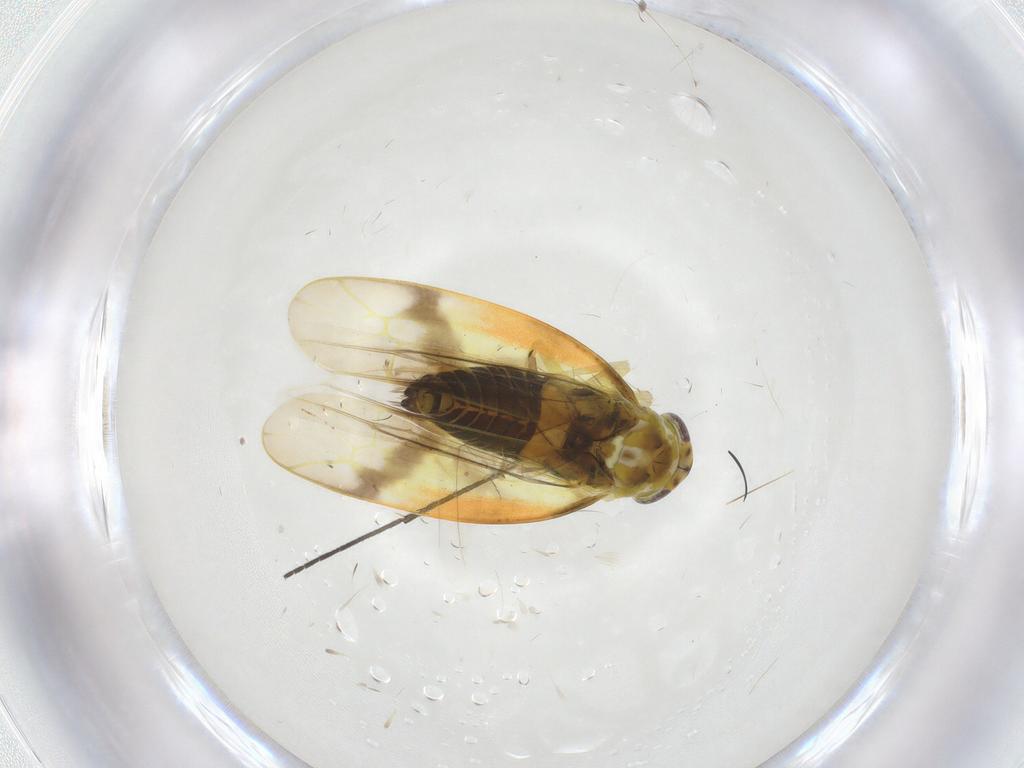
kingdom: Animalia
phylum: Arthropoda
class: Insecta
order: Hemiptera
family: Cicadellidae
